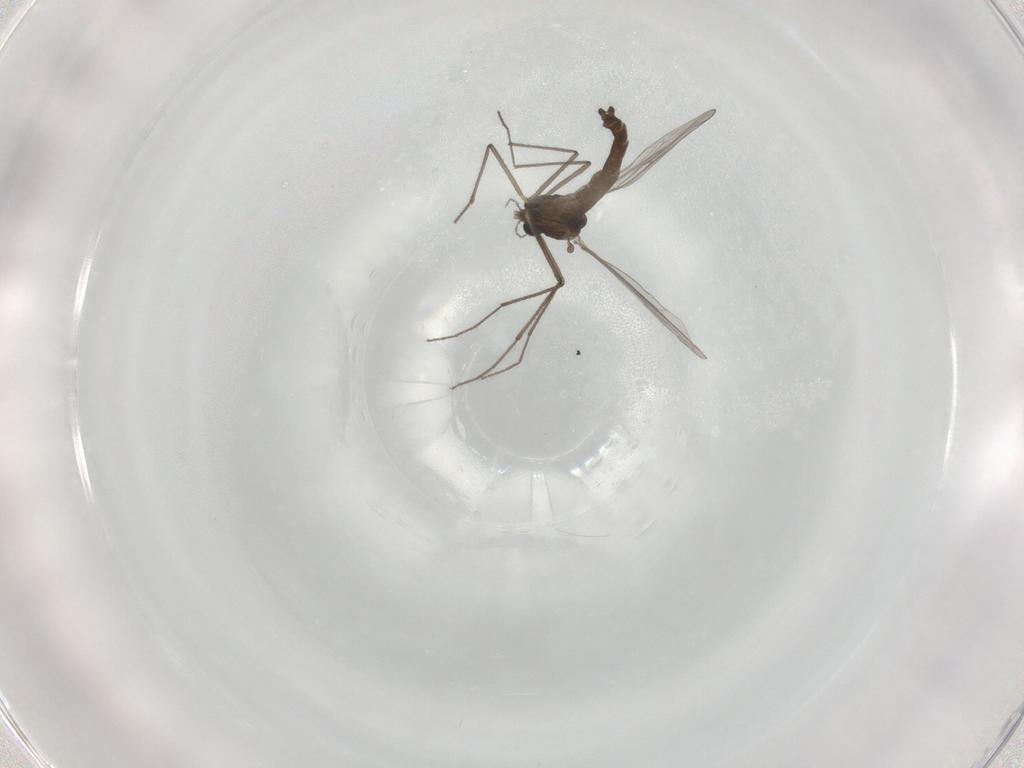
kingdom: Animalia
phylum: Arthropoda
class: Insecta
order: Diptera
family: Chironomidae
